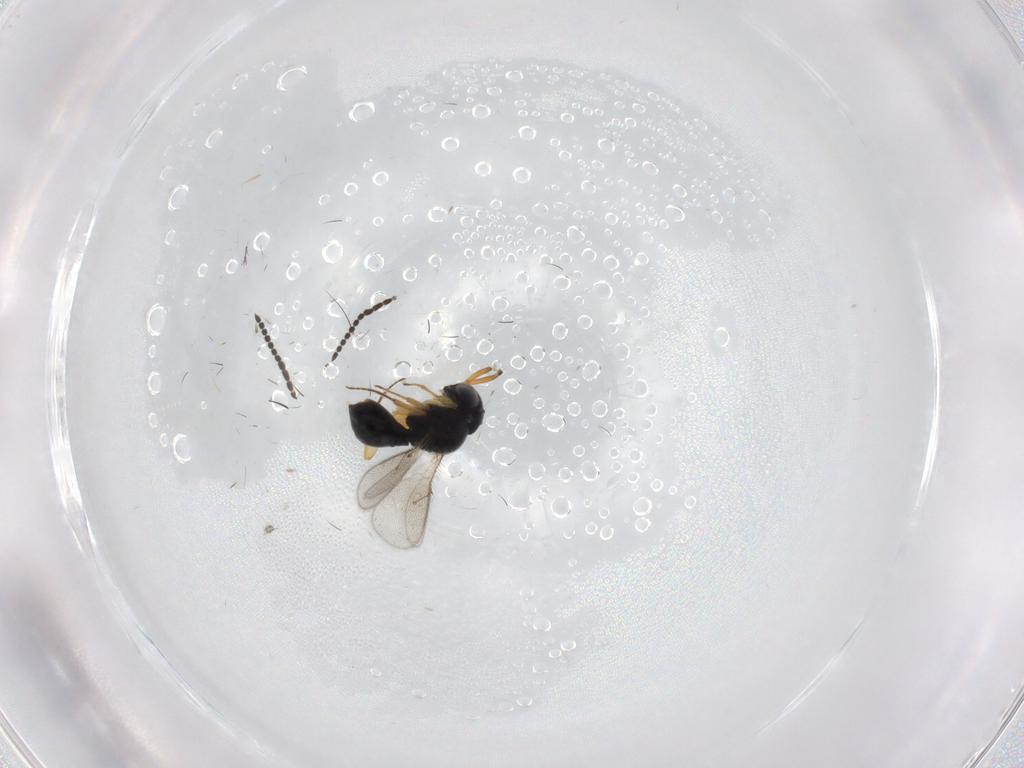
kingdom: Animalia
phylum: Arthropoda
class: Insecta
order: Hymenoptera
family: Scelionidae
